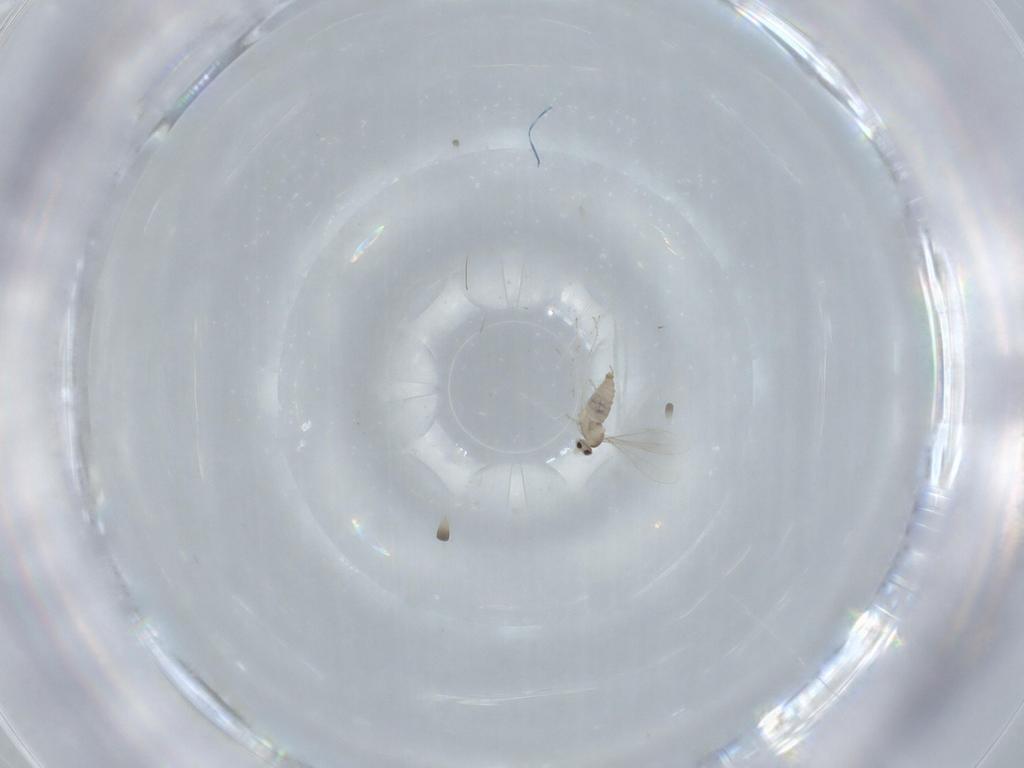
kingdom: Animalia
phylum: Arthropoda
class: Insecta
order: Diptera
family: Cecidomyiidae
